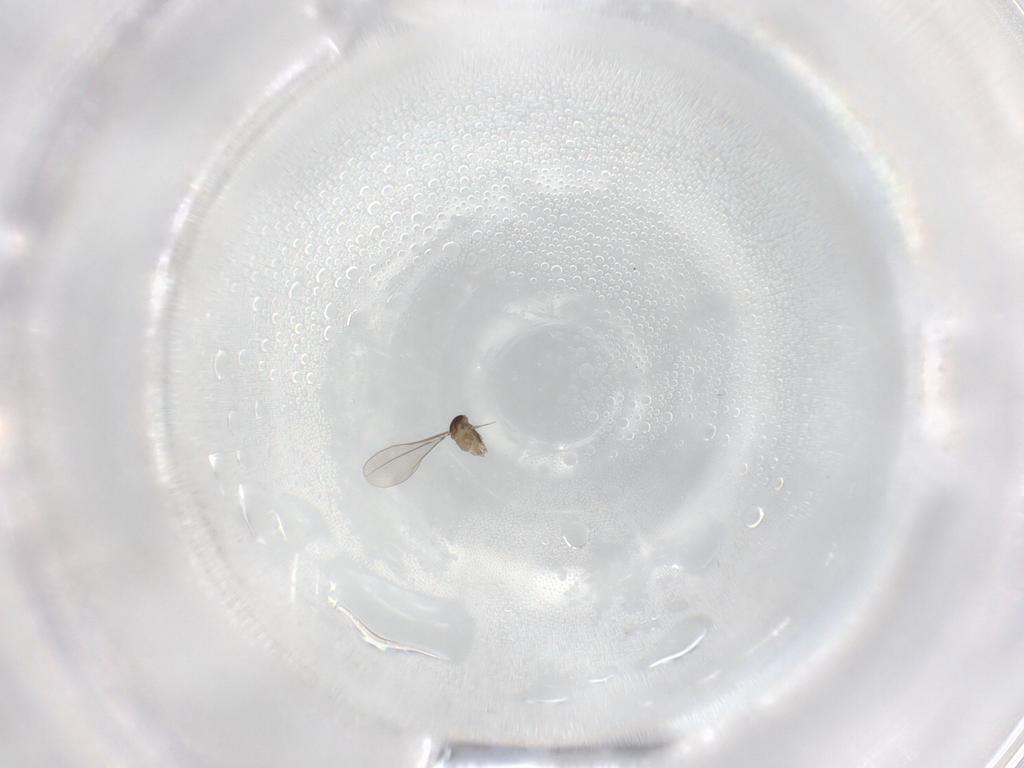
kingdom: Animalia
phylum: Arthropoda
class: Insecta
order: Diptera
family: Cecidomyiidae
